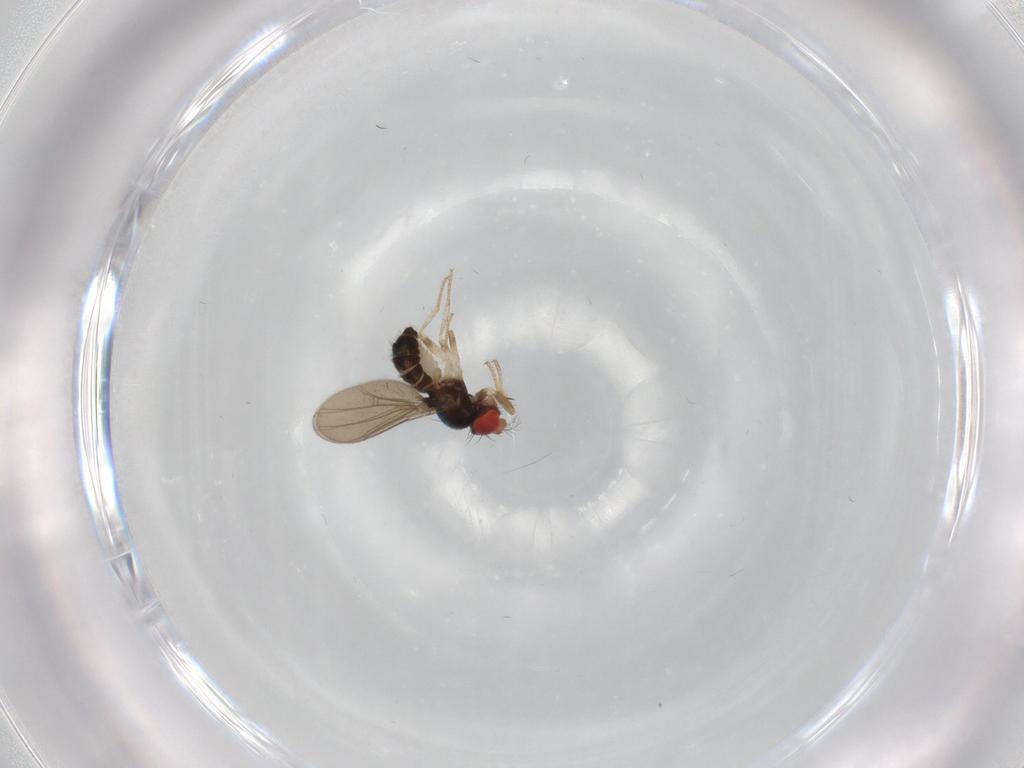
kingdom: Animalia
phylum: Arthropoda
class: Insecta
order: Diptera
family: Drosophilidae
